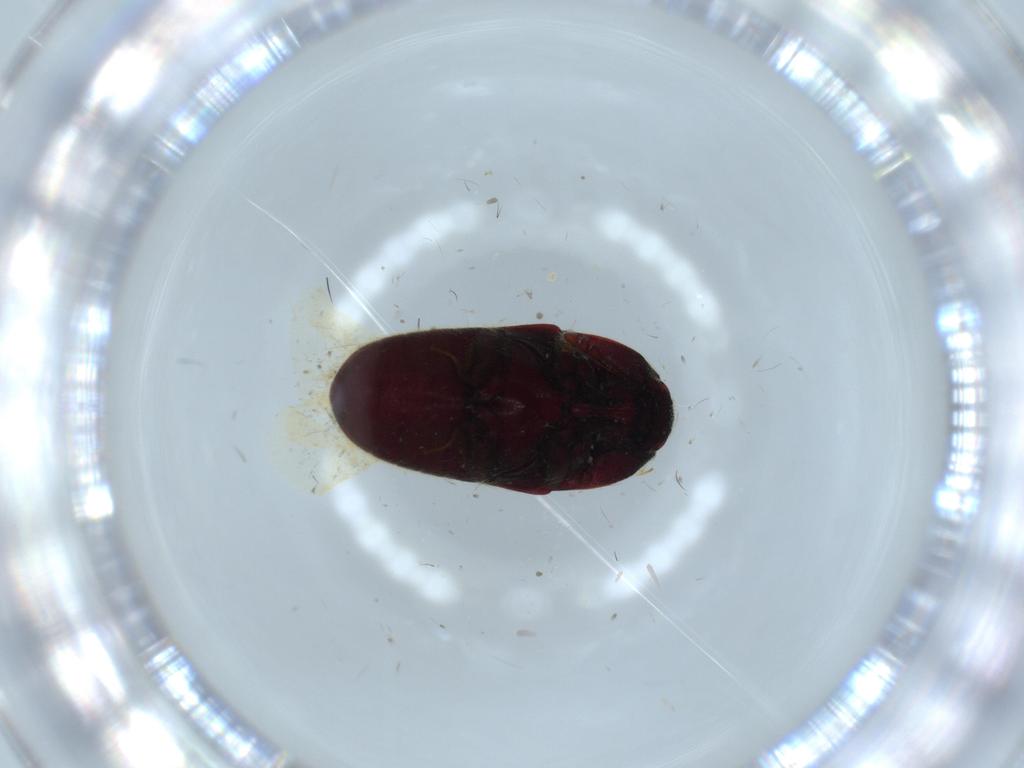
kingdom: Animalia
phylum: Arthropoda
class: Insecta
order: Coleoptera
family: Throscidae
